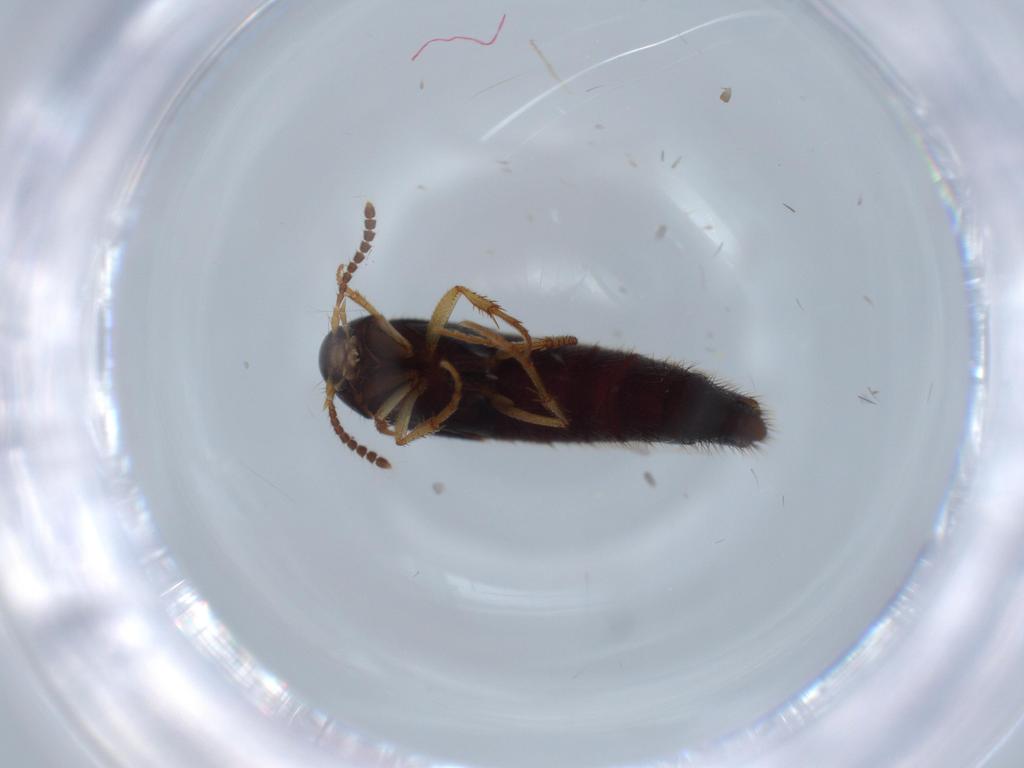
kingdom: Animalia
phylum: Arthropoda
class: Insecta
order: Coleoptera
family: Staphylinidae
